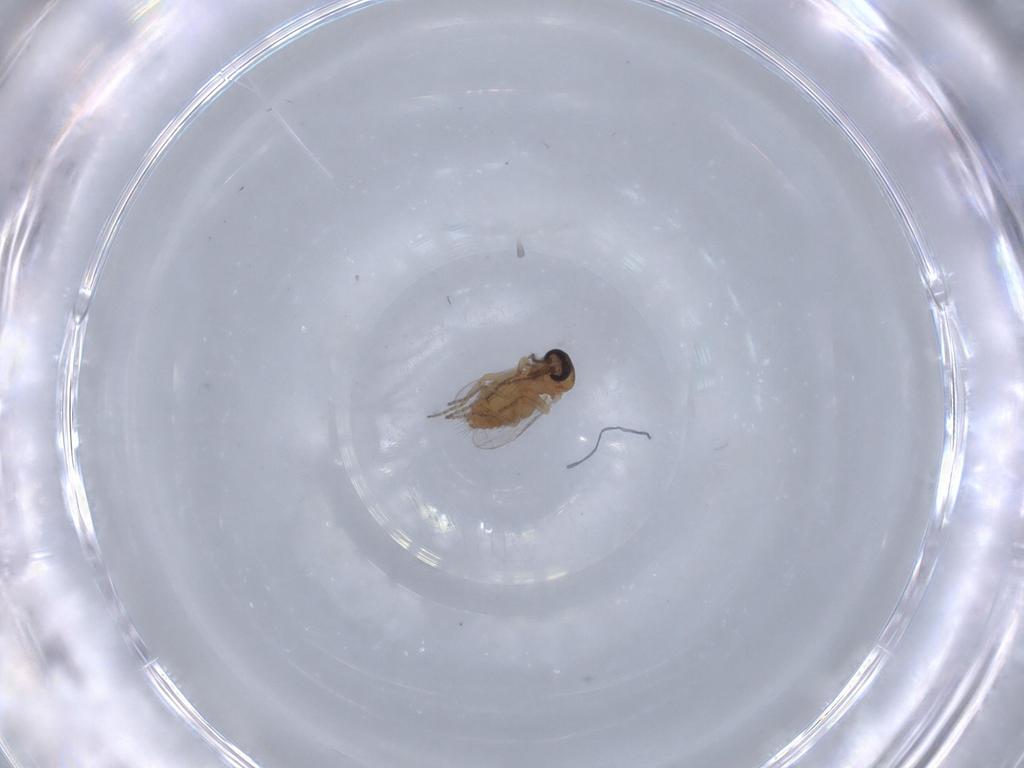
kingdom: Animalia
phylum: Arthropoda
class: Insecta
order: Diptera
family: Ceratopogonidae
